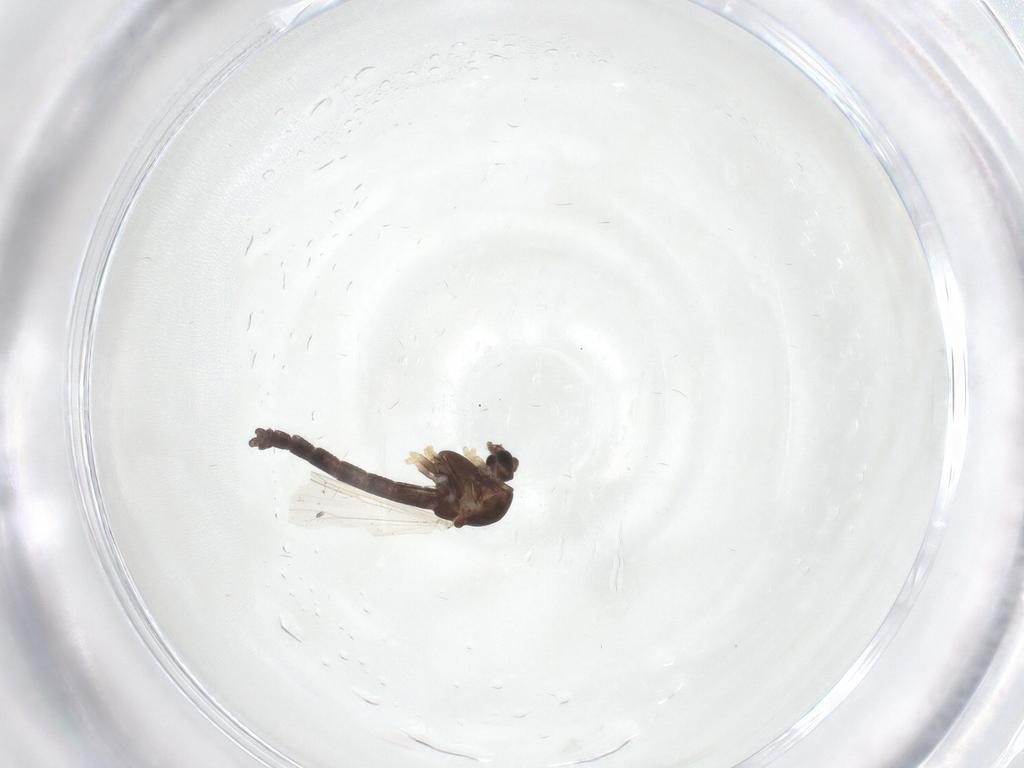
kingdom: Animalia
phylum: Arthropoda
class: Insecta
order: Diptera
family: Chironomidae
